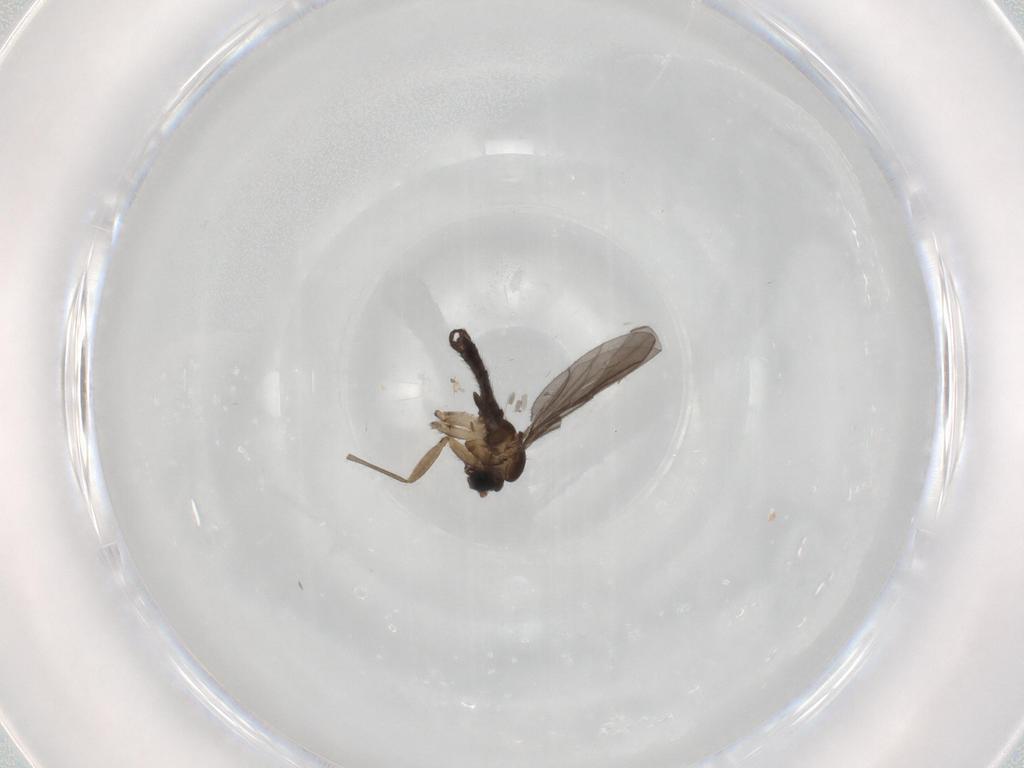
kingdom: Animalia
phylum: Arthropoda
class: Insecta
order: Diptera
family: Sciaridae
